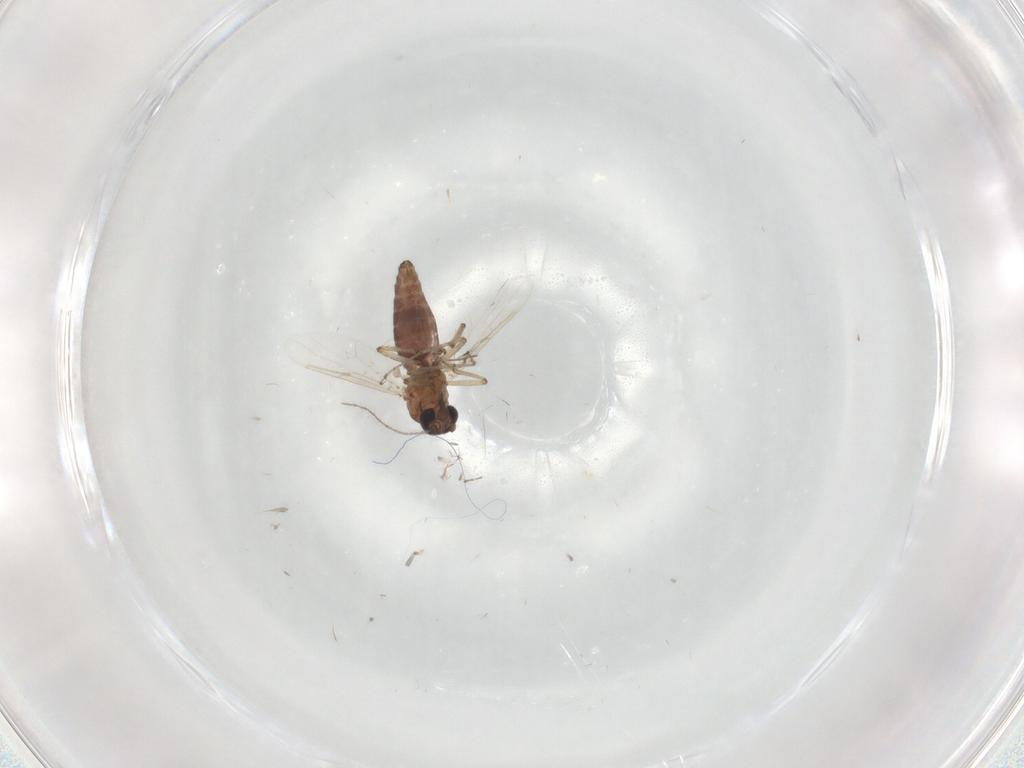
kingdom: Animalia
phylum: Arthropoda
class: Insecta
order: Diptera
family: Ceratopogonidae
